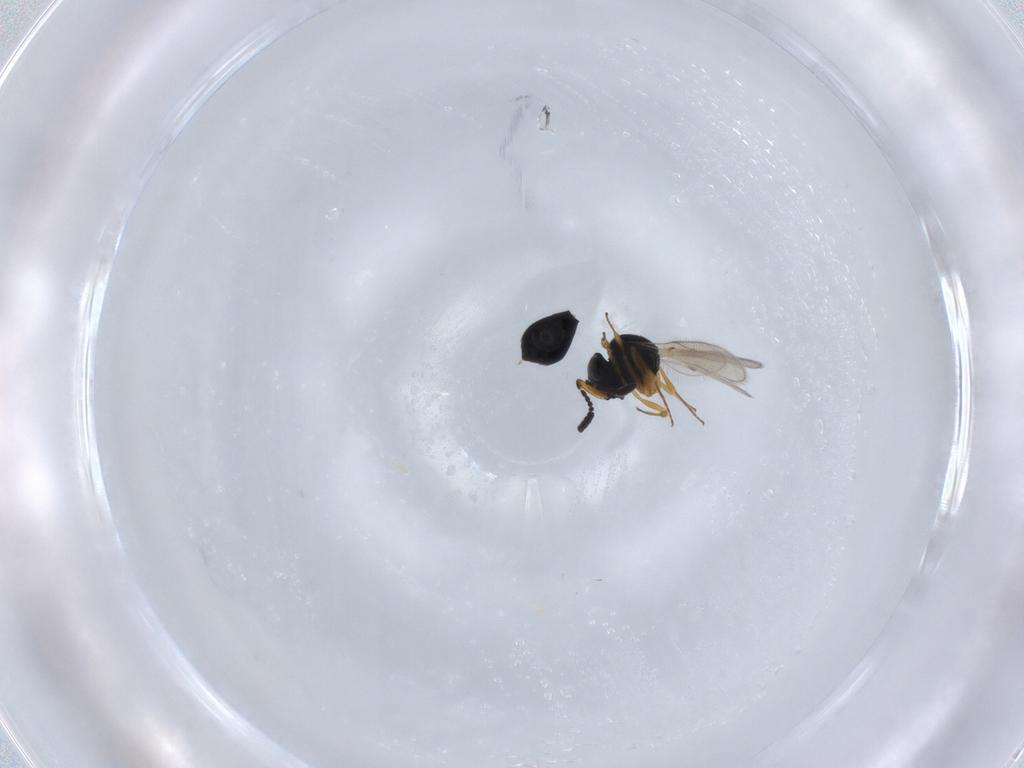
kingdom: Animalia
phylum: Arthropoda
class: Insecta
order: Hymenoptera
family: Scelionidae
